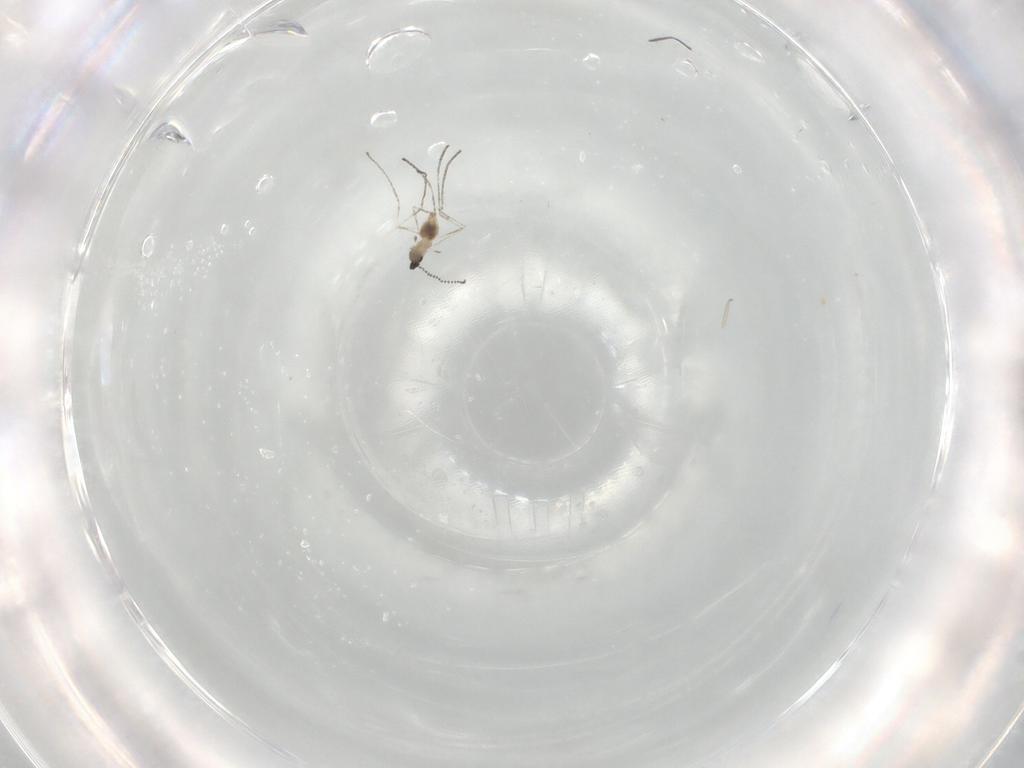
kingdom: Animalia
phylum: Arthropoda
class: Insecta
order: Diptera
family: Cecidomyiidae
